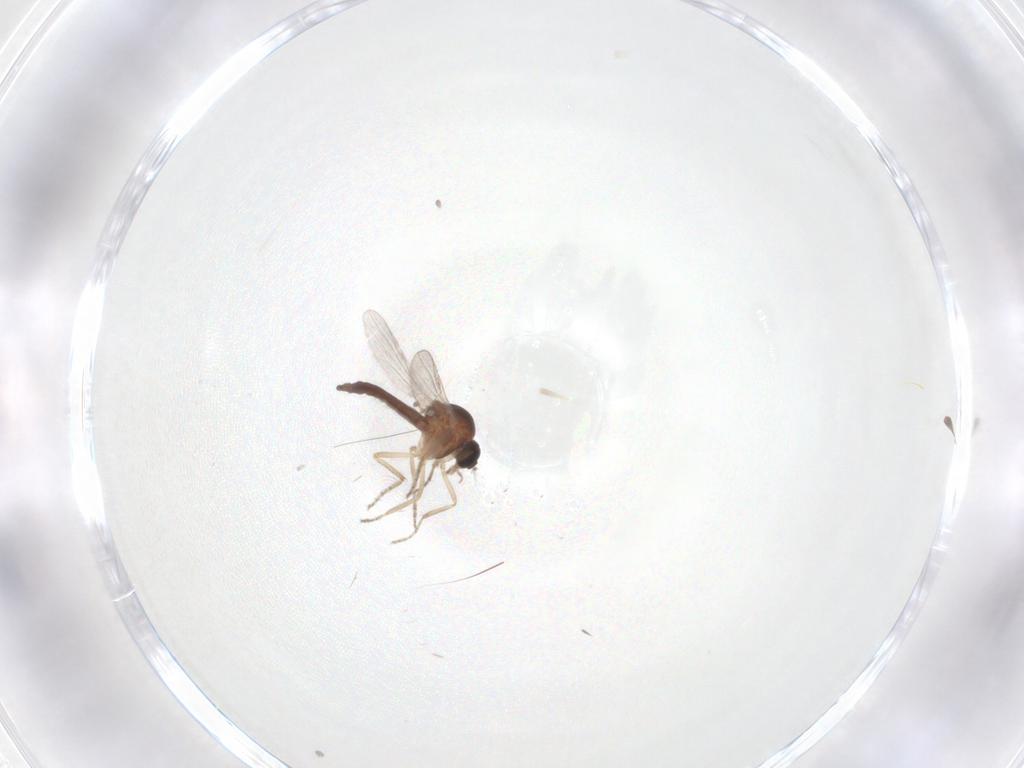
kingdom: Animalia
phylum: Arthropoda
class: Insecta
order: Diptera
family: Ceratopogonidae
